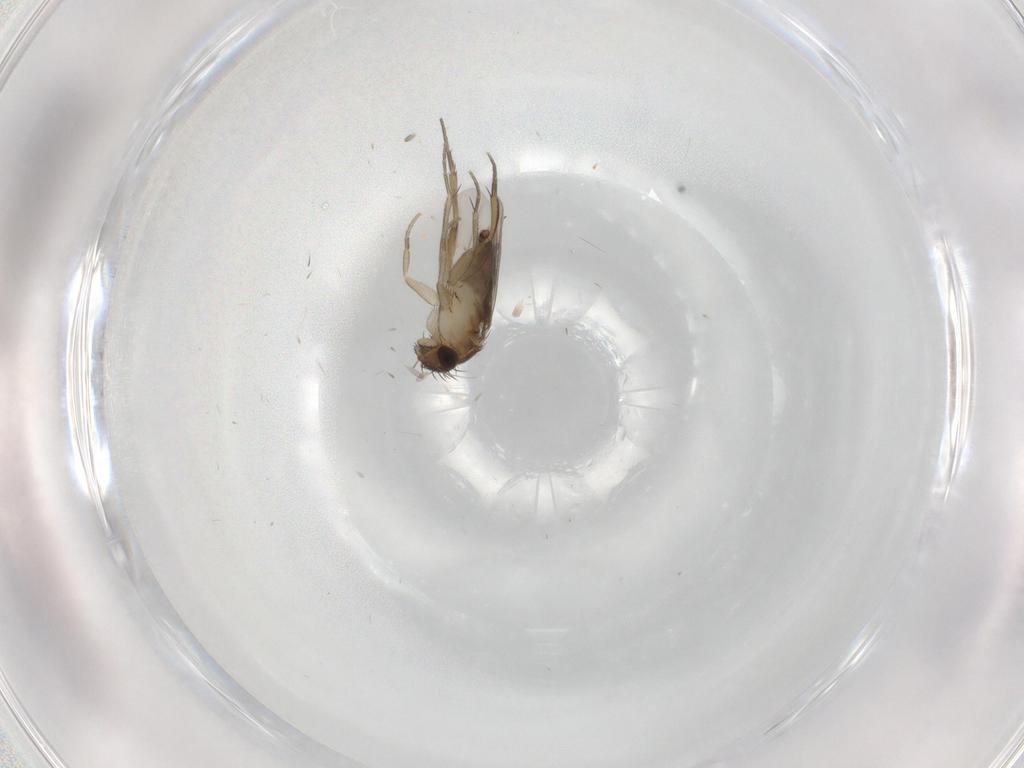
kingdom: Animalia
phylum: Arthropoda
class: Insecta
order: Diptera
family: Phoridae
